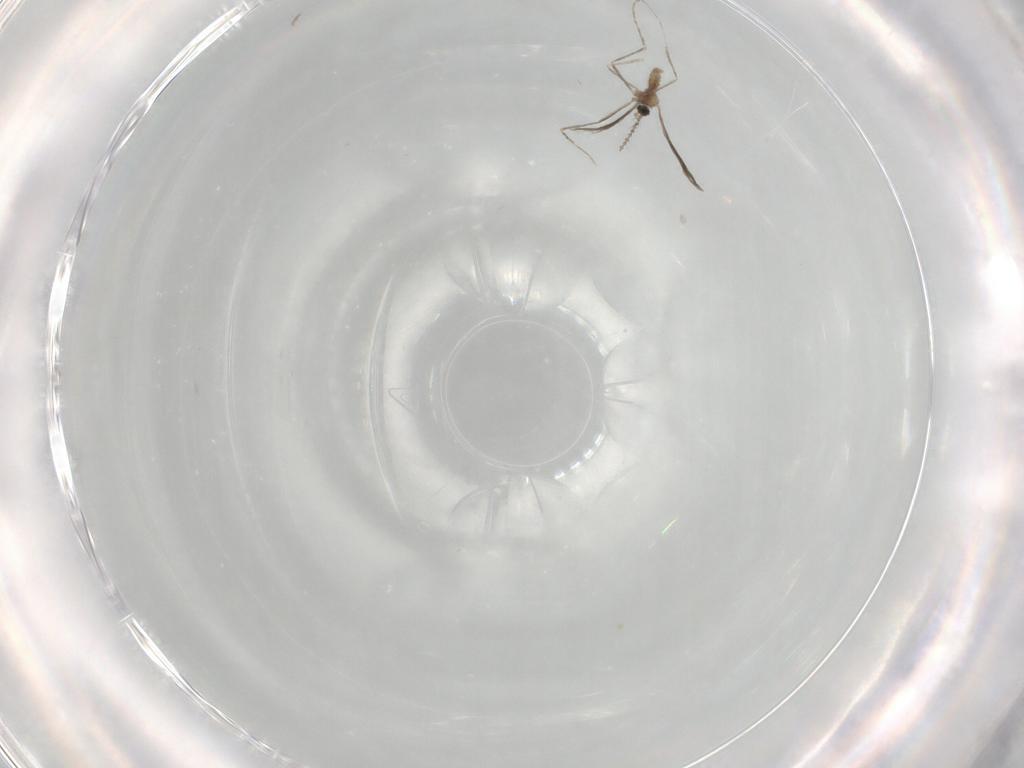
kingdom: Animalia
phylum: Arthropoda
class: Insecta
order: Diptera
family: Cecidomyiidae
